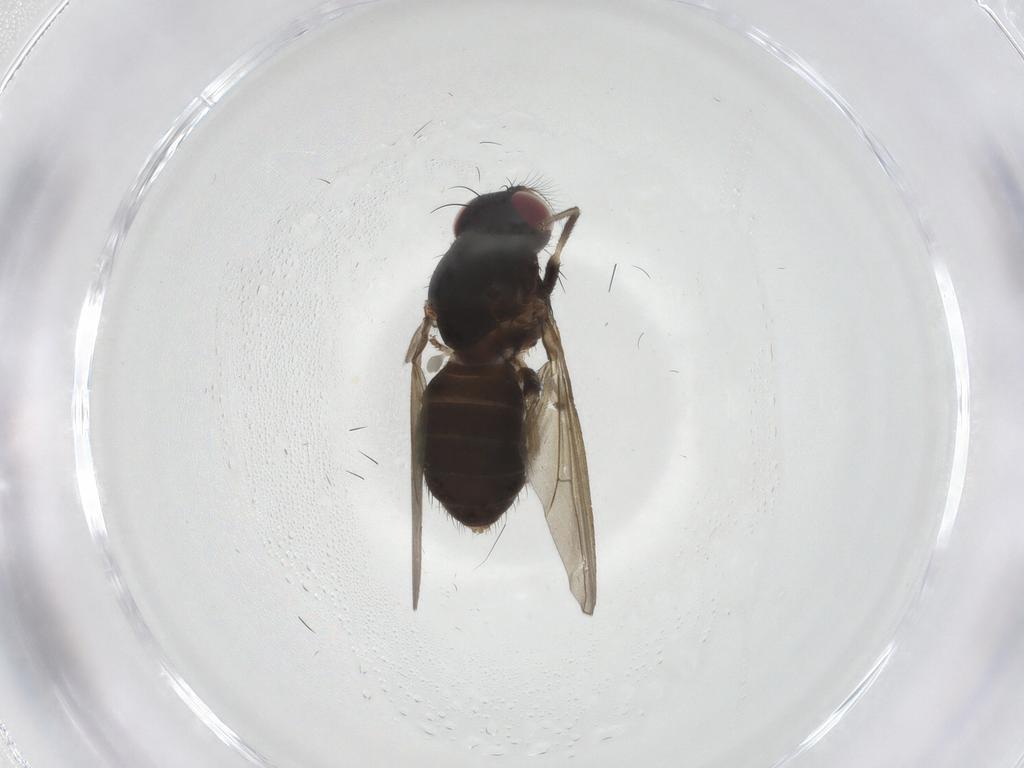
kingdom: Animalia
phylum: Arthropoda
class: Insecta
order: Diptera
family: Lauxaniidae
